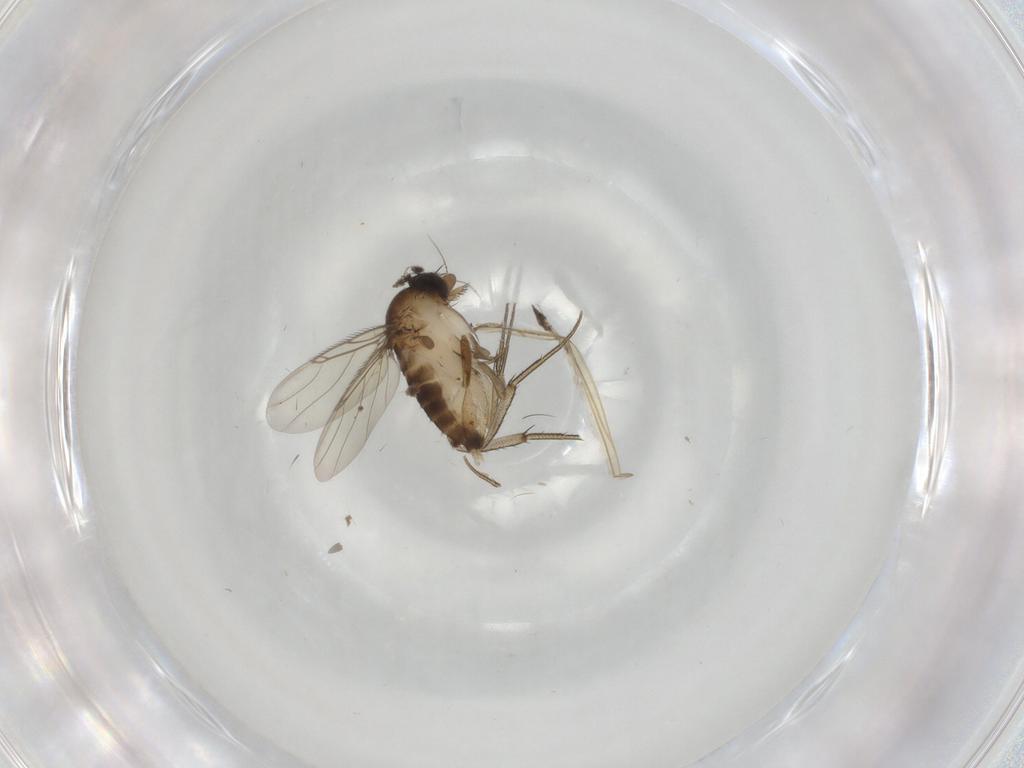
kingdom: Animalia
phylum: Arthropoda
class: Insecta
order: Diptera
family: Phoridae
